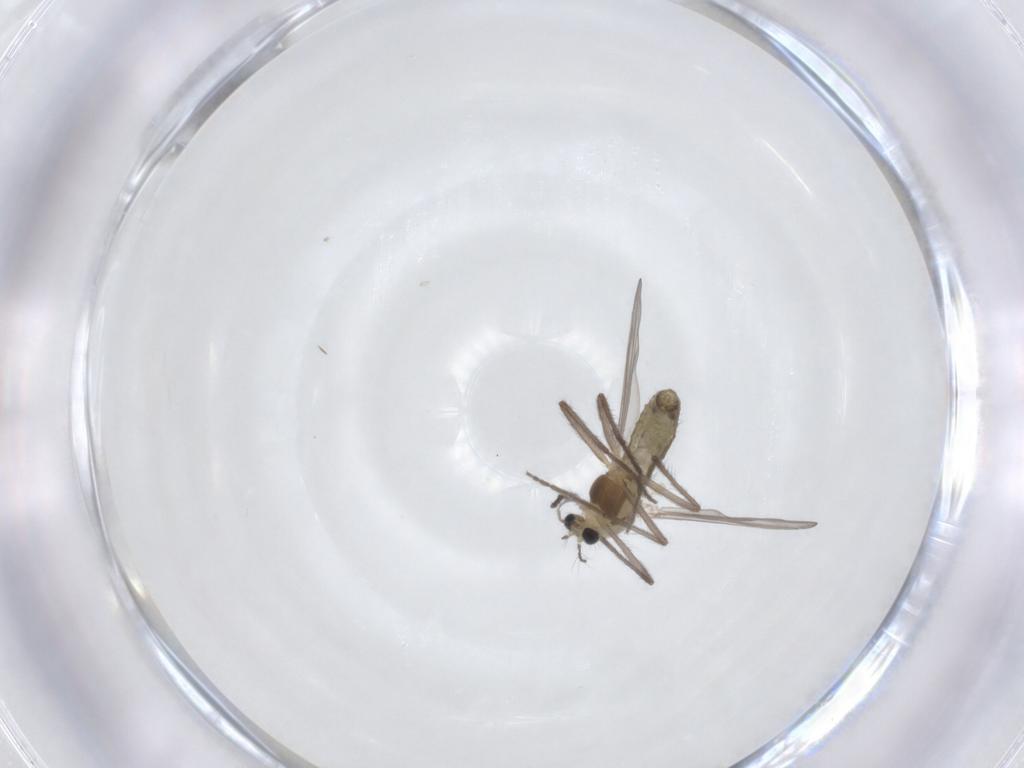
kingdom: Animalia
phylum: Arthropoda
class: Insecta
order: Diptera
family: Chironomidae
